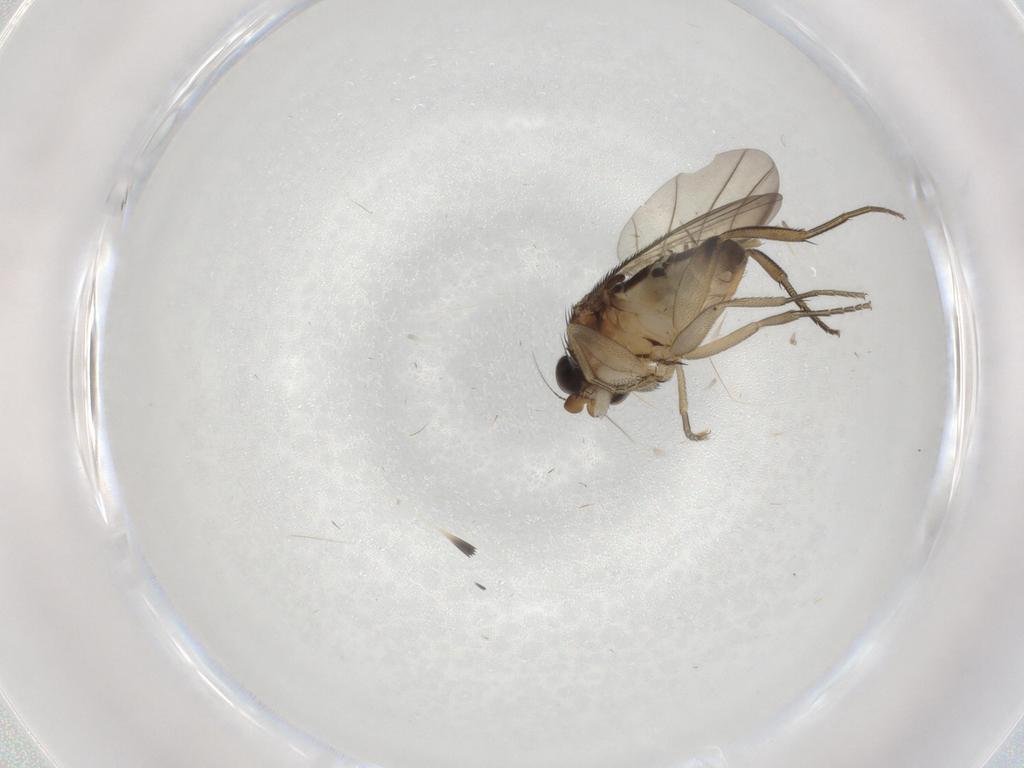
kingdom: Animalia
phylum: Arthropoda
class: Insecta
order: Diptera
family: Phoridae
